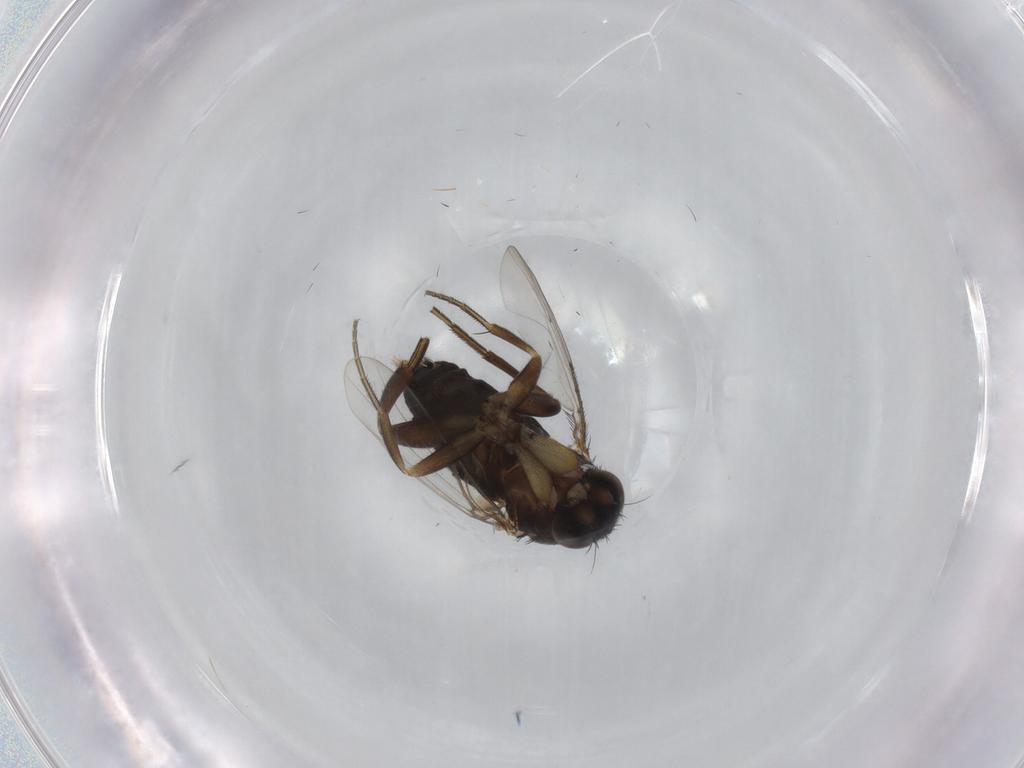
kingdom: Animalia
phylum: Arthropoda
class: Insecta
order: Diptera
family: Phoridae
